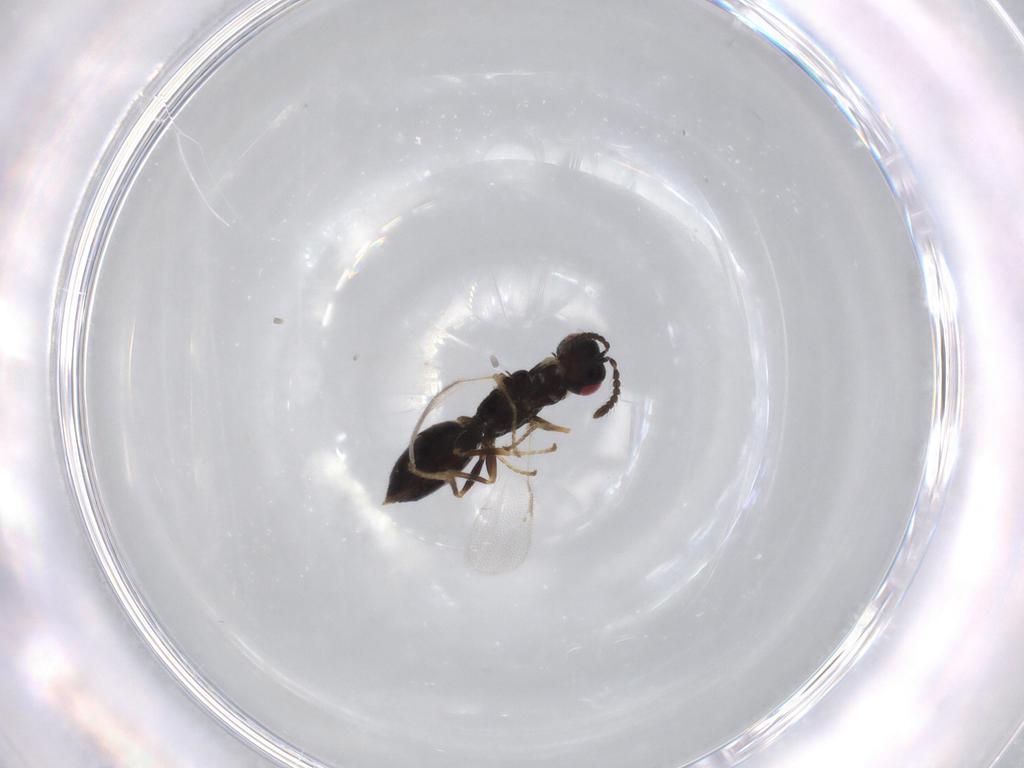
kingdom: Animalia
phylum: Arthropoda
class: Insecta
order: Hymenoptera
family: Eurytomidae
